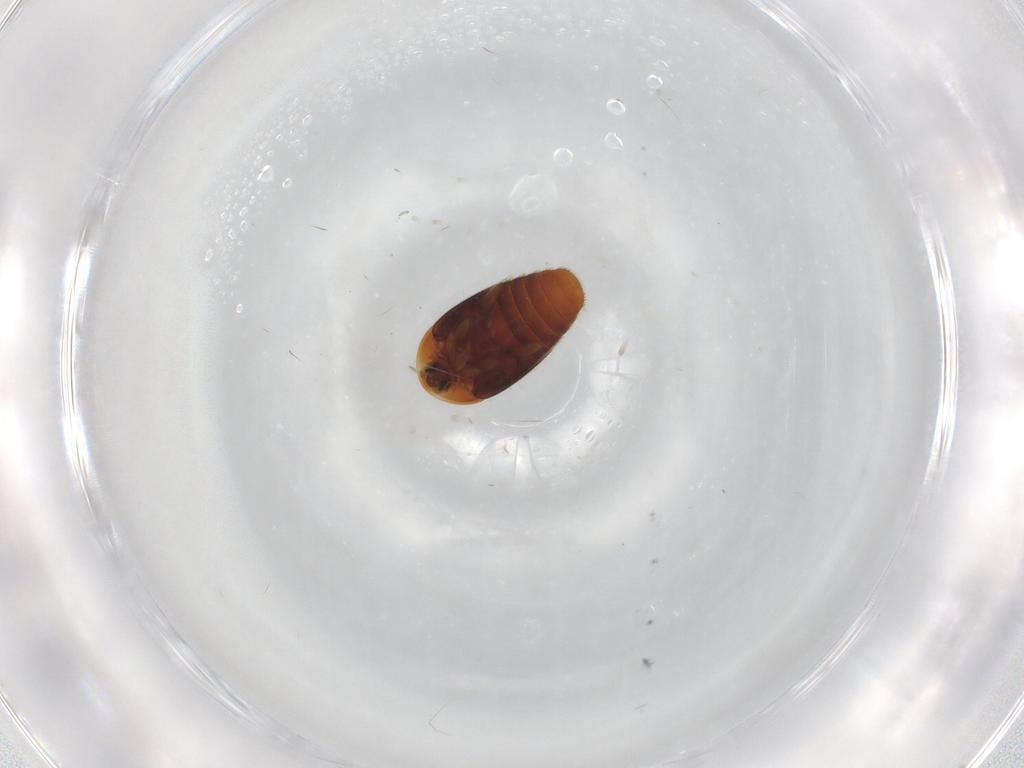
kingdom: Animalia
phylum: Arthropoda
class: Insecta
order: Coleoptera
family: Corylophidae
